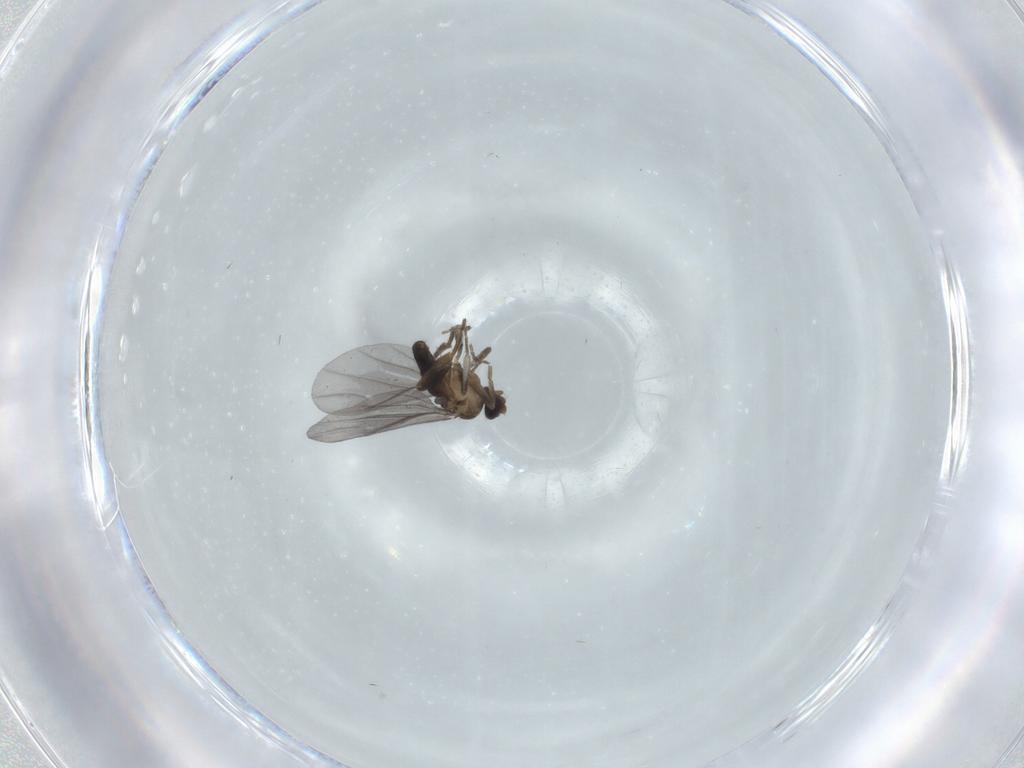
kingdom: Animalia
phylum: Arthropoda
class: Insecta
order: Diptera
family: Phoridae
